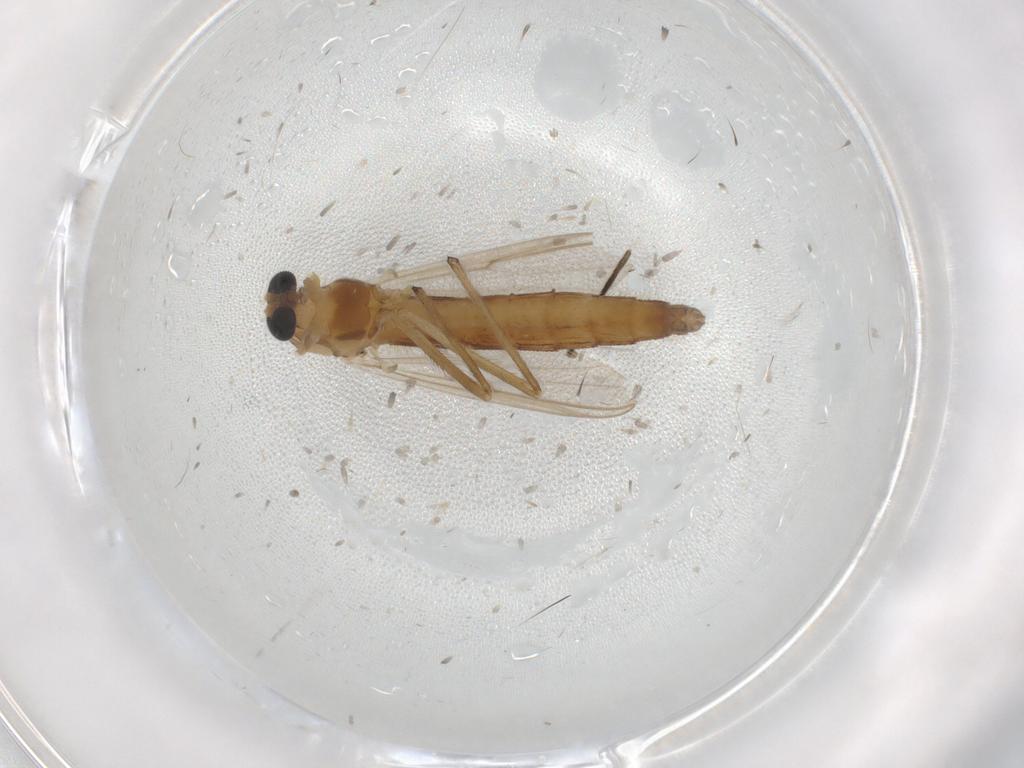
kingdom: Animalia
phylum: Arthropoda
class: Insecta
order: Diptera
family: Chironomidae
